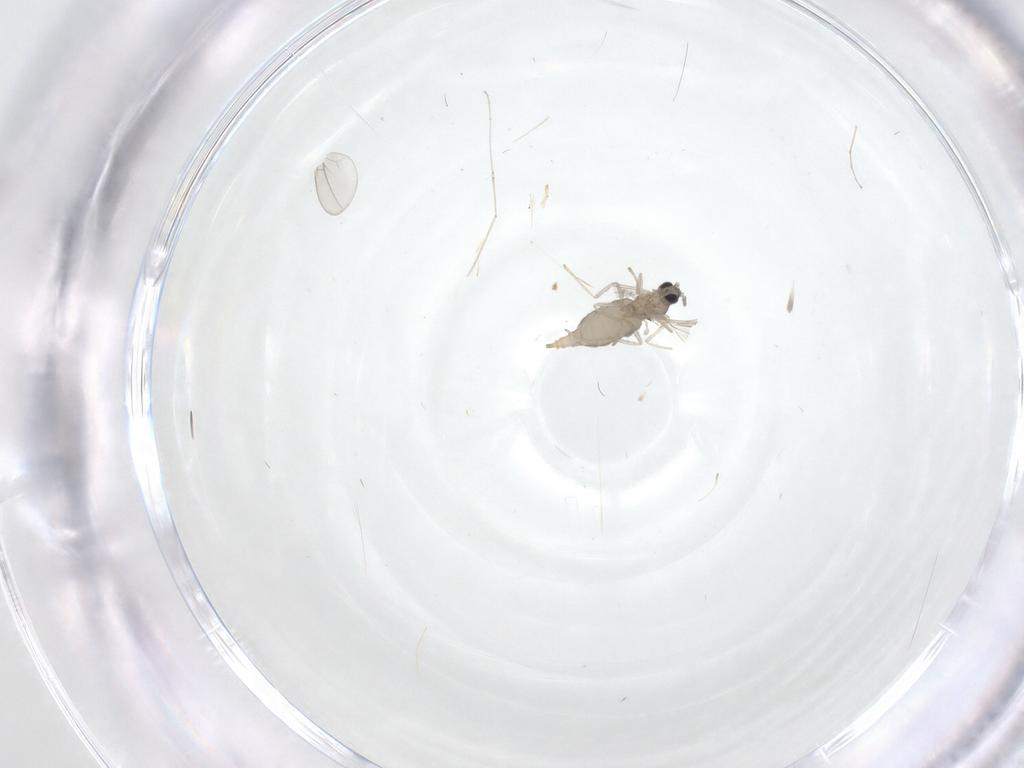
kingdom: Animalia
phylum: Arthropoda
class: Insecta
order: Diptera
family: Cecidomyiidae
